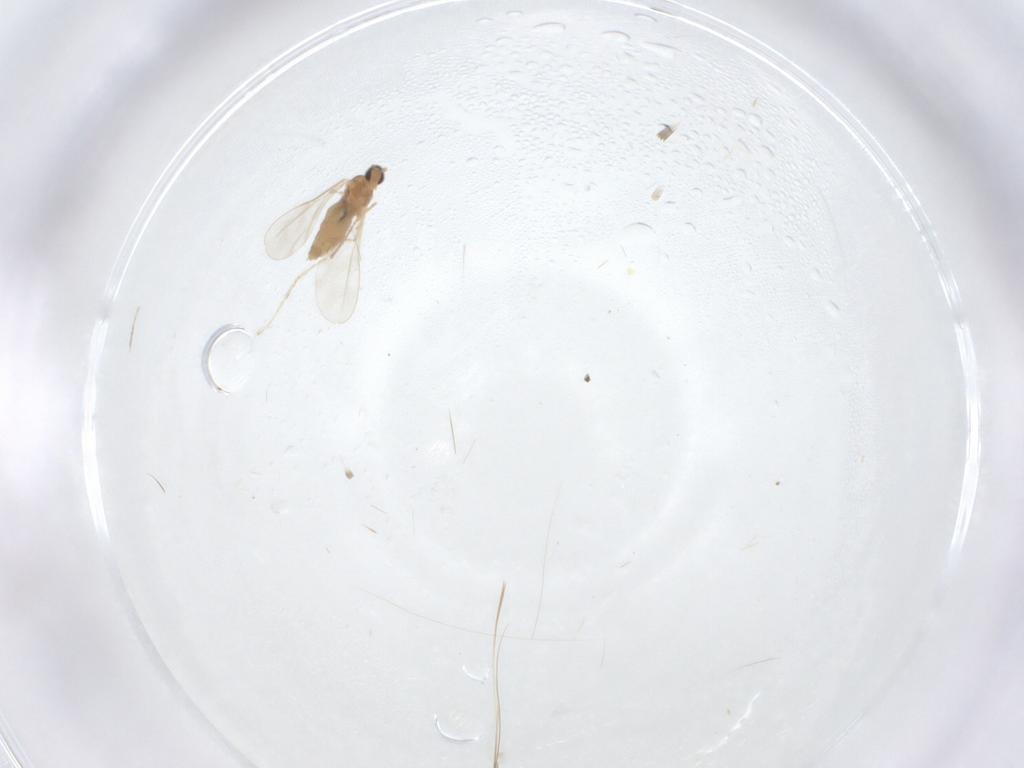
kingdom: Animalia
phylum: Arthropoda
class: Insecta
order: Diptera
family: Cecidomyiidae
